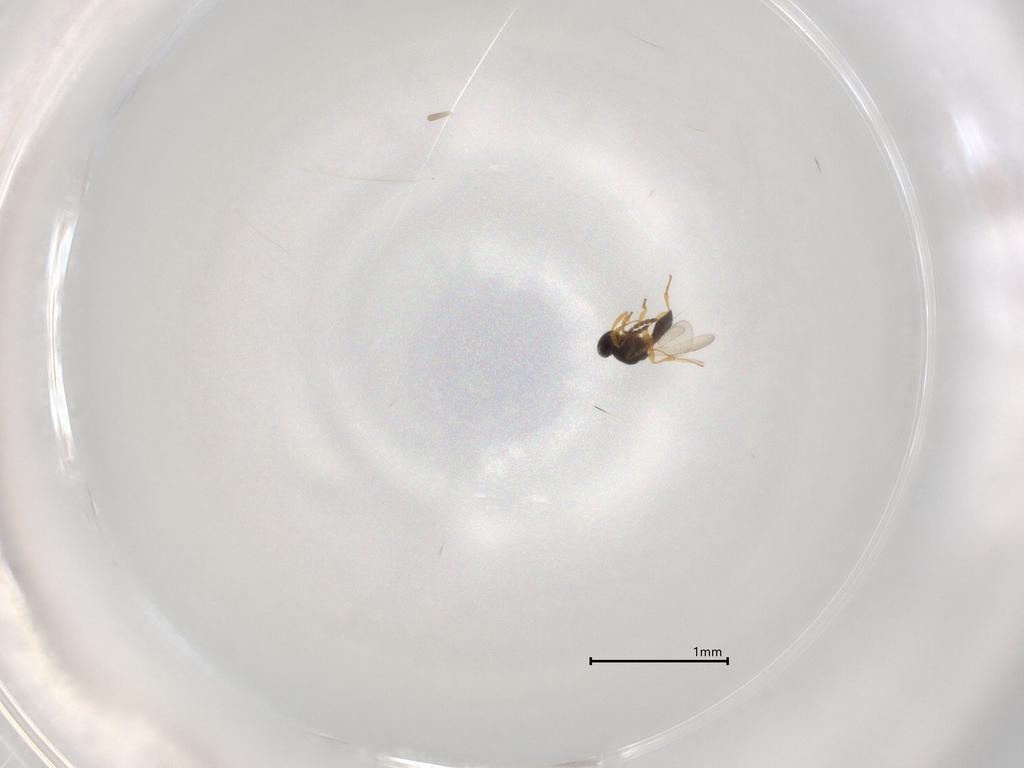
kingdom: Animalia
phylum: Arthropoda
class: Insecta
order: Hymenoptera
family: Platygastridae
